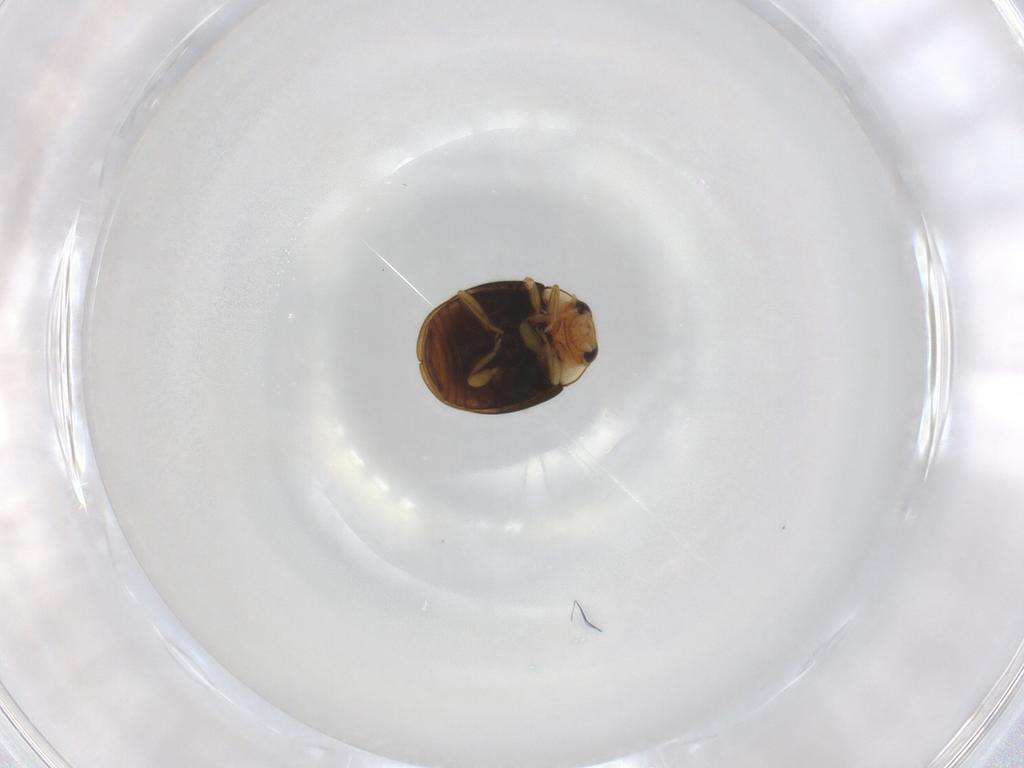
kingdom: Animalia
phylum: Arthropoda
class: Insecta
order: Coleoptera
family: Coccinellidae
